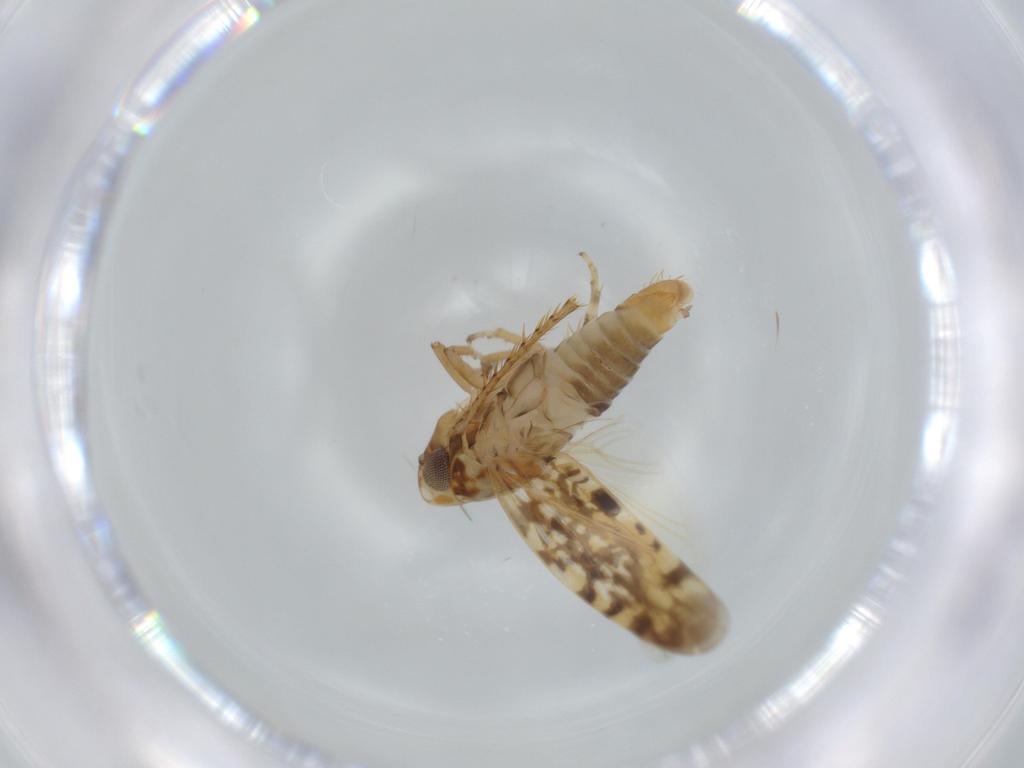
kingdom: Animalia
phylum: Arthropoda
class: Insecta
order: Hemiptera
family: Cicadellidae
